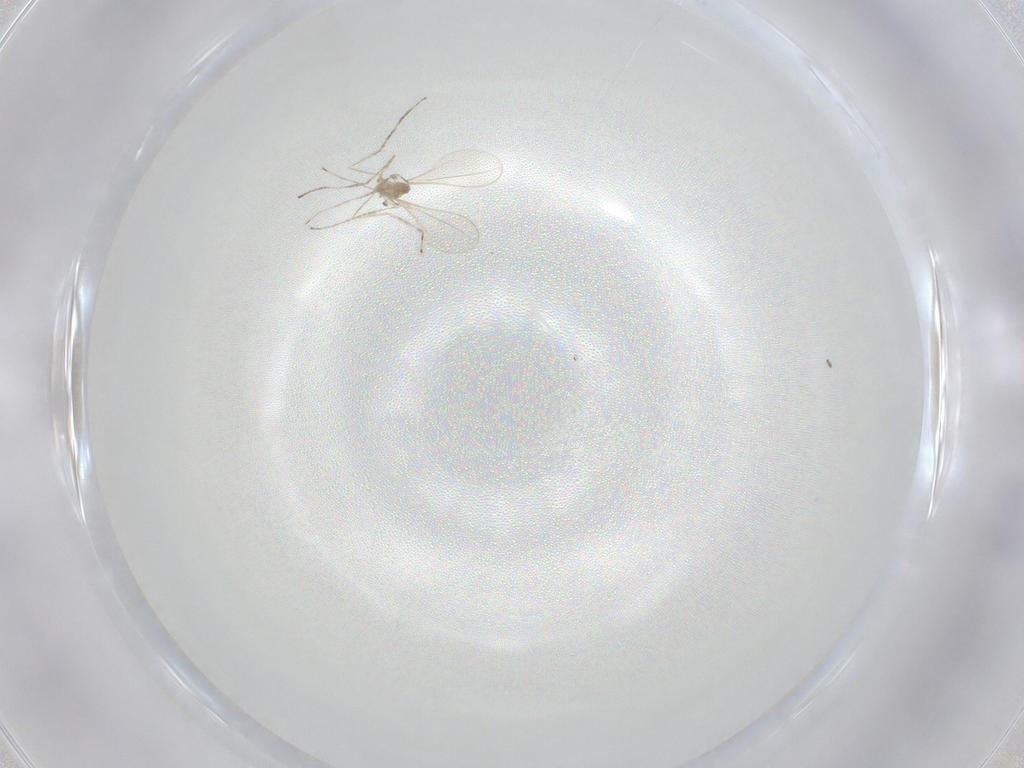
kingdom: Animalia
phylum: Arthropoda
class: Insecta
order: Diptera
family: Cecidomyiidae
